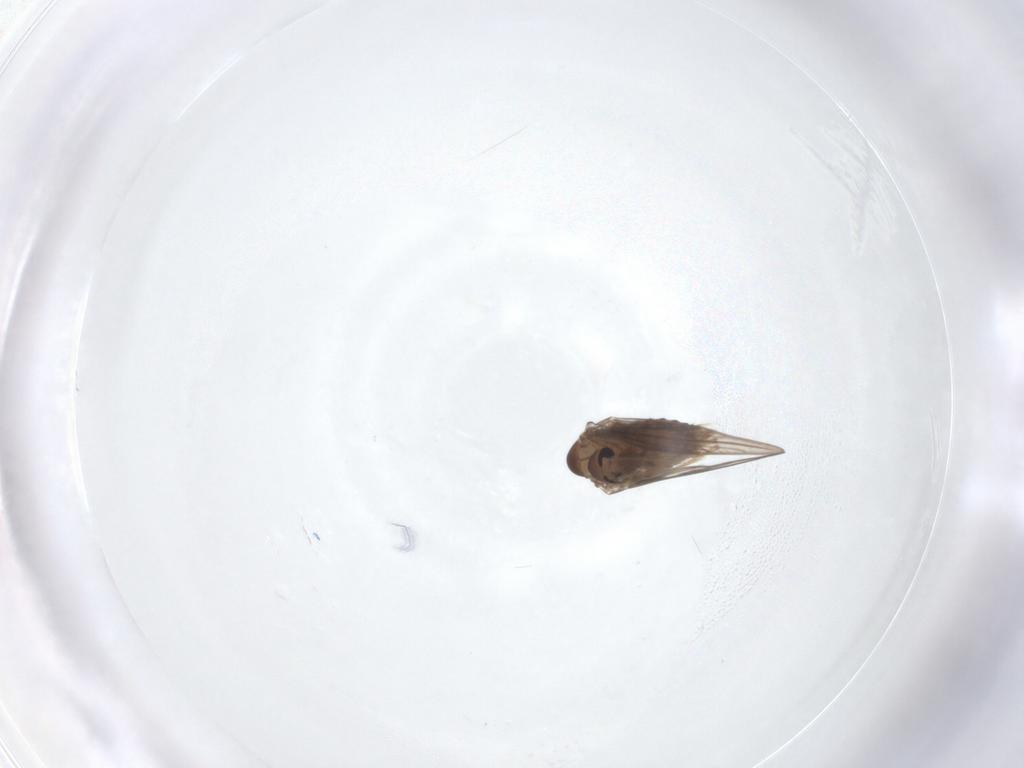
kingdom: Animalia
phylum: Arthropoda
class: Insecta
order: Diptera
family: Psychodidae
